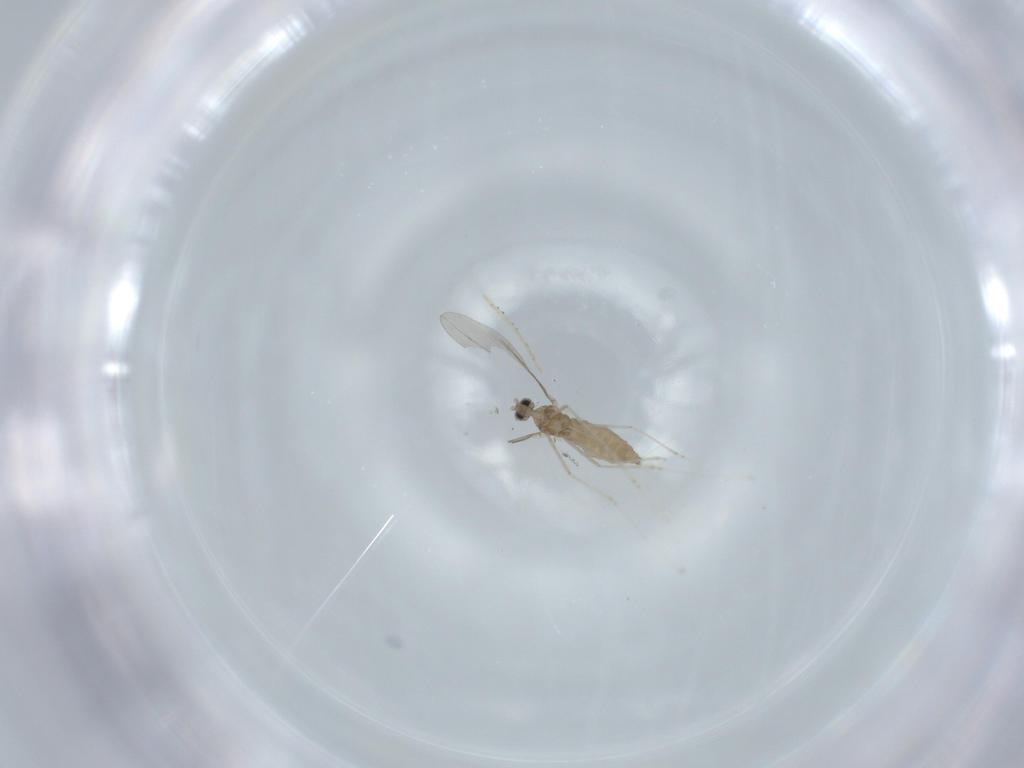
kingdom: Animalia
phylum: Arthropoda
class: Insecta
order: Diptera
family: Cecidomyiidae
